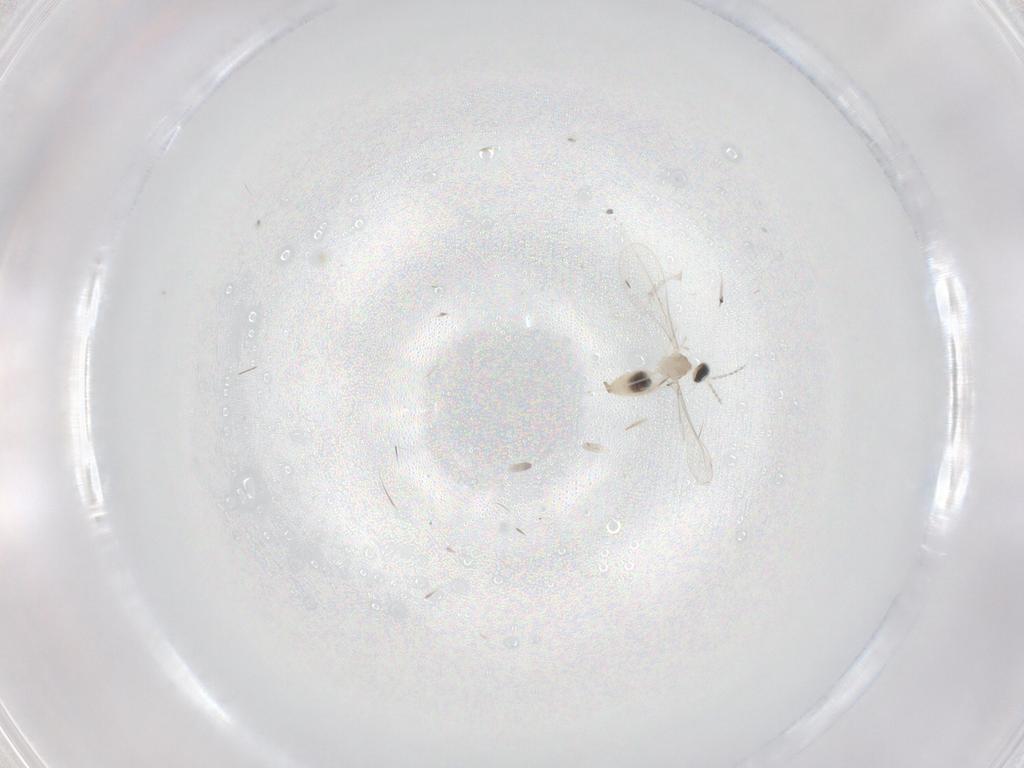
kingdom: Animalia
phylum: Arthropoda
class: Insecta
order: Diptera
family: Cecidomyiidae
